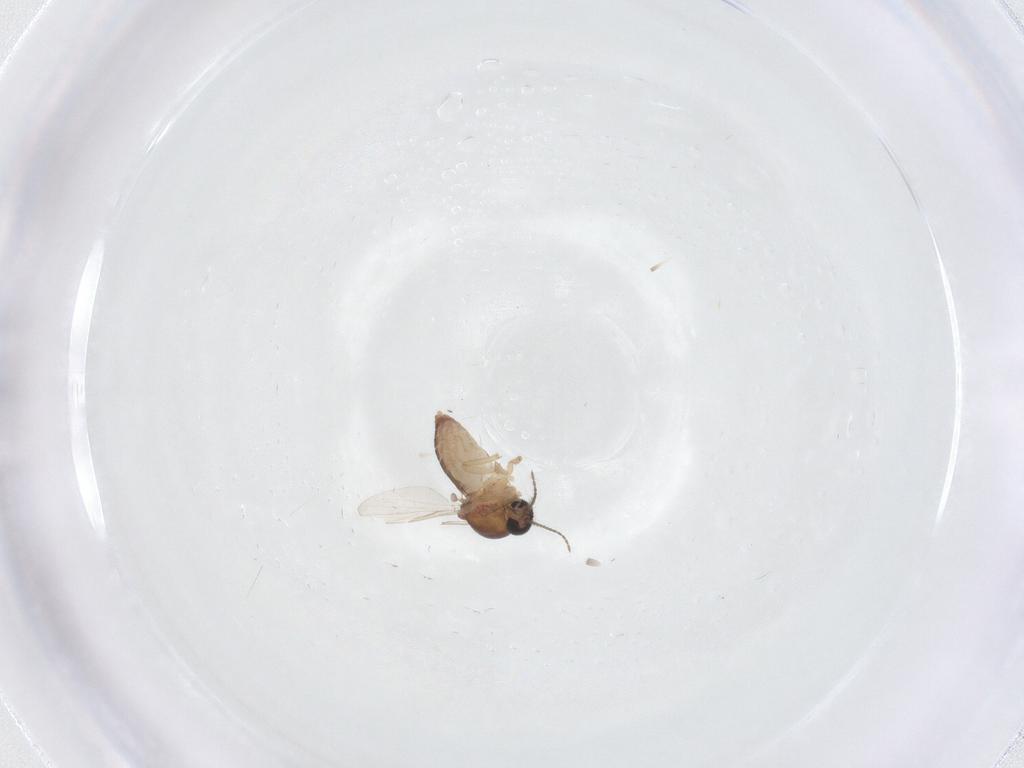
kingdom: Animalia
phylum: Arthropoda
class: Insecta
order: Diptera
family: Ceratopogonidae
